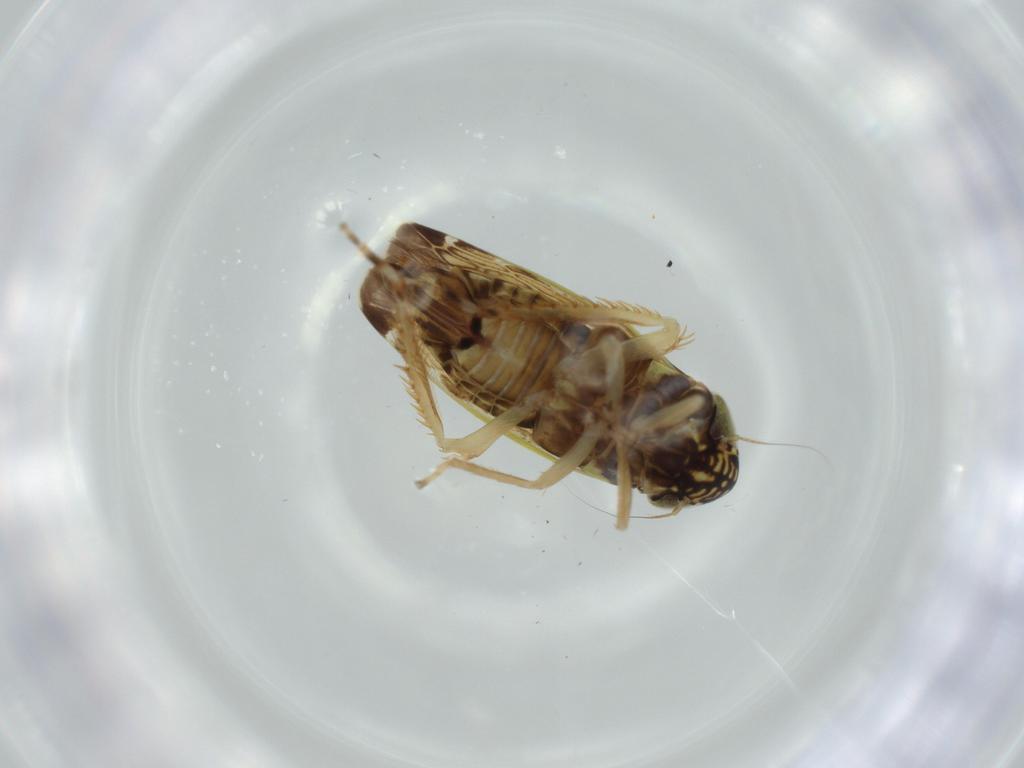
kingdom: Animalia
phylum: Arthropoda
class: Insecta
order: Hemiptera
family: Cicadellidae
